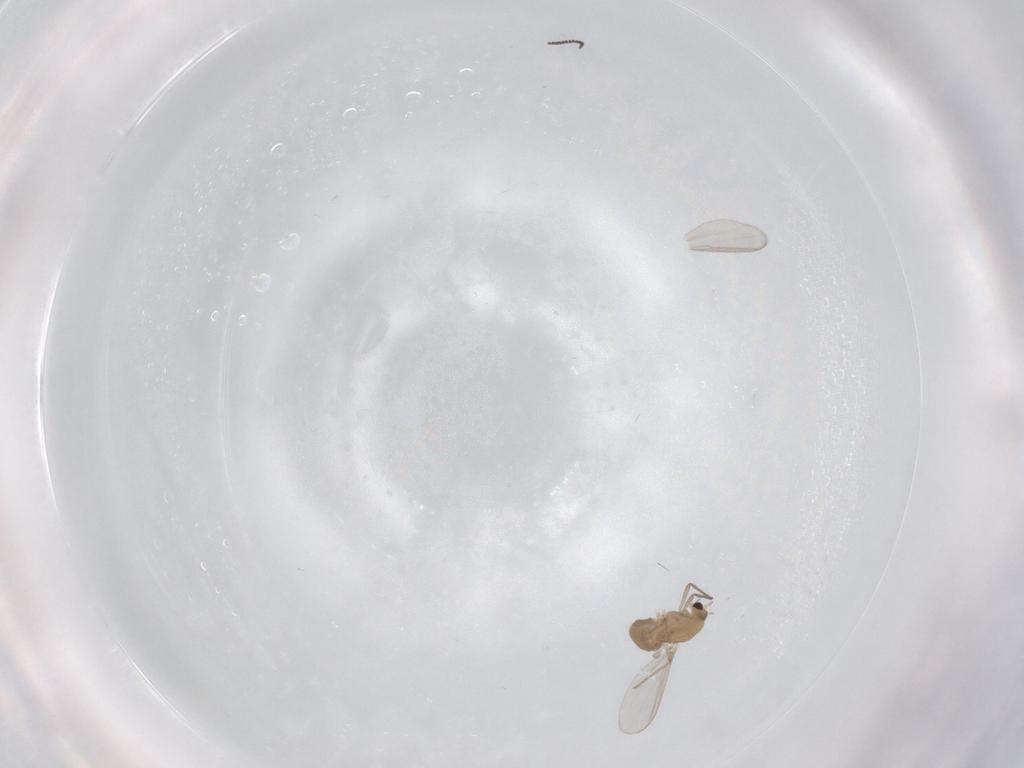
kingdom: Animalia
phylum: Arthropoda
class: Insecta
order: Diptera
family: Chironomidae
